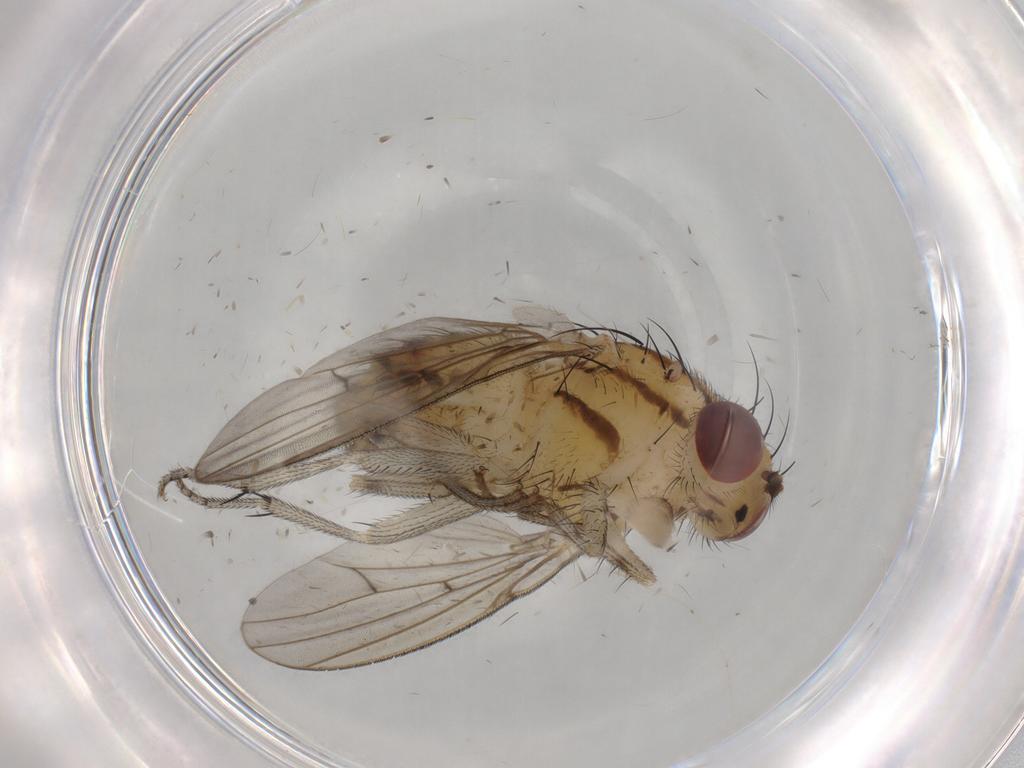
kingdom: Animalia
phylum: Arthropoda
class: Insecta
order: Diptera
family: Lauxaniidae
